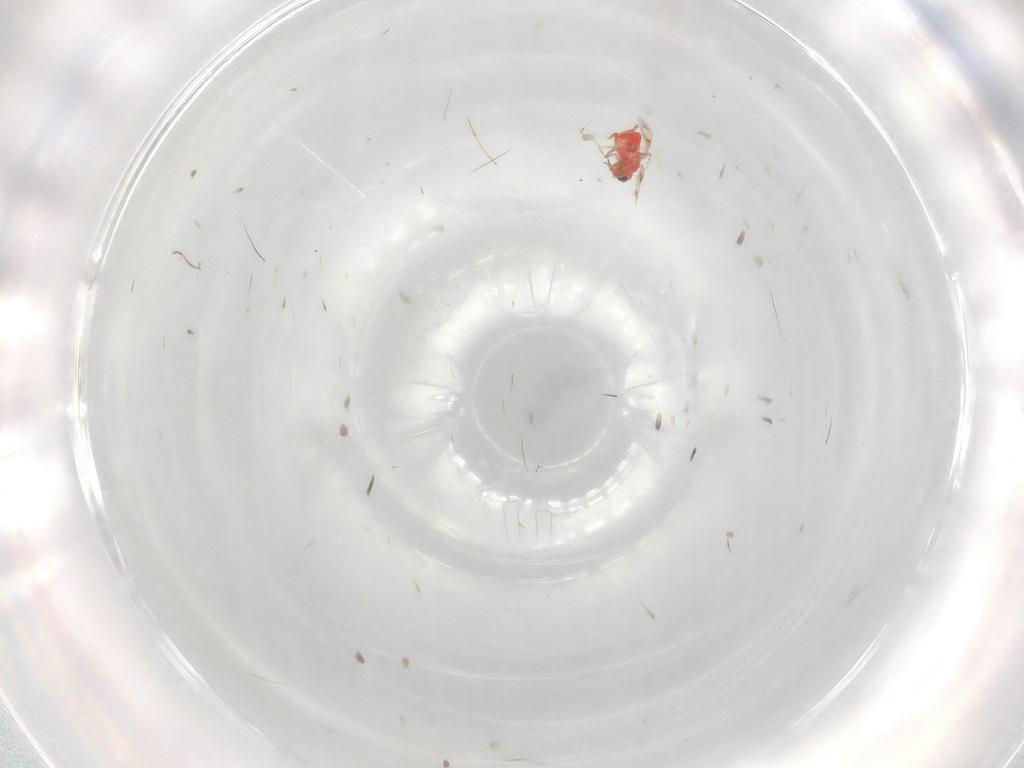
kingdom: Animalia
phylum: Arthropoda
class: Insecta
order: Hymenoptera
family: Trichogrammatidae
